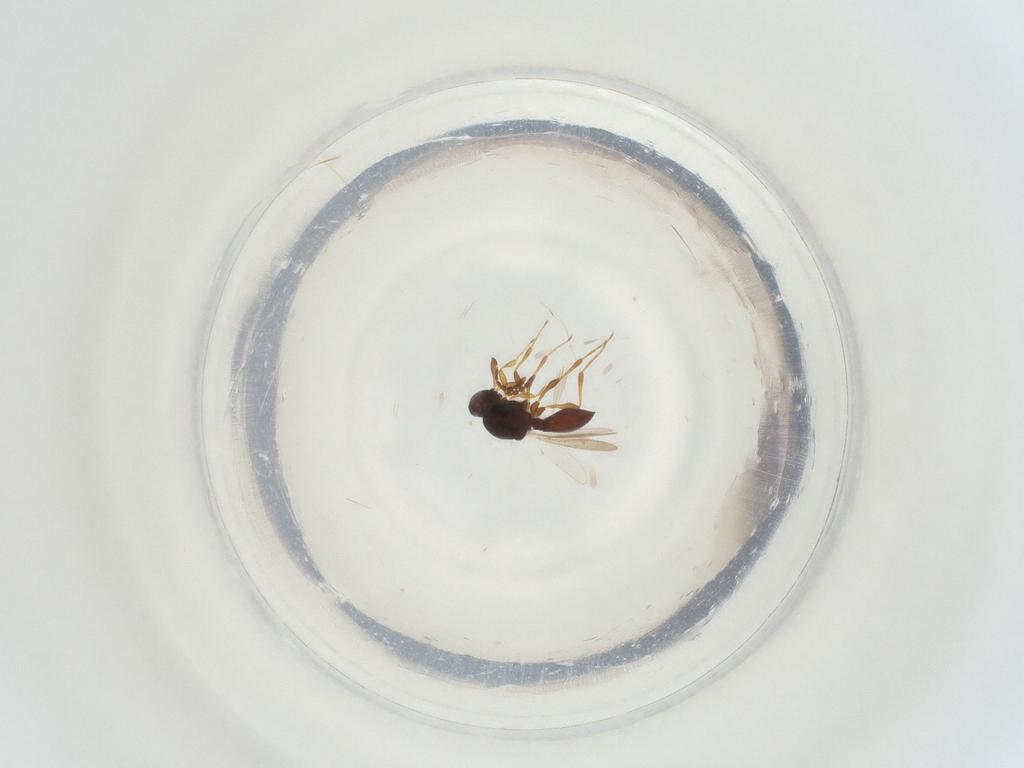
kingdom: Animalia
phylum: Arthropoda
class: Insecta
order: Hymenoptera
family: Platygastridae
